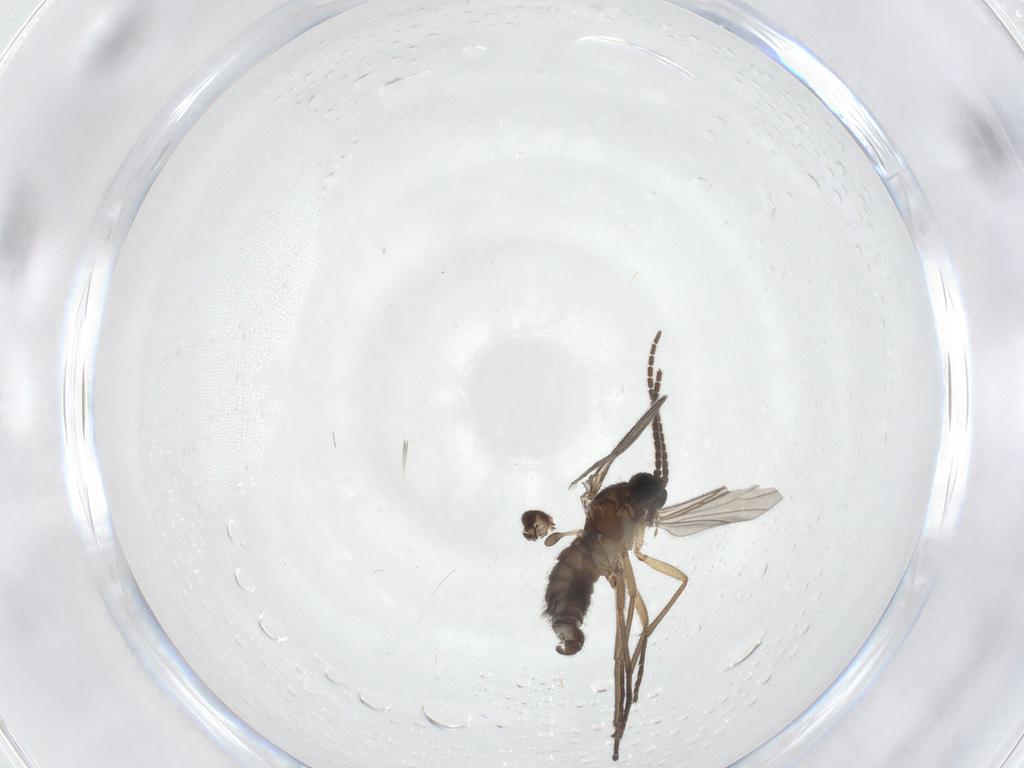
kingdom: Animalia
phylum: Arthropoda
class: Insecta
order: Diptera
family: Sciaridae
